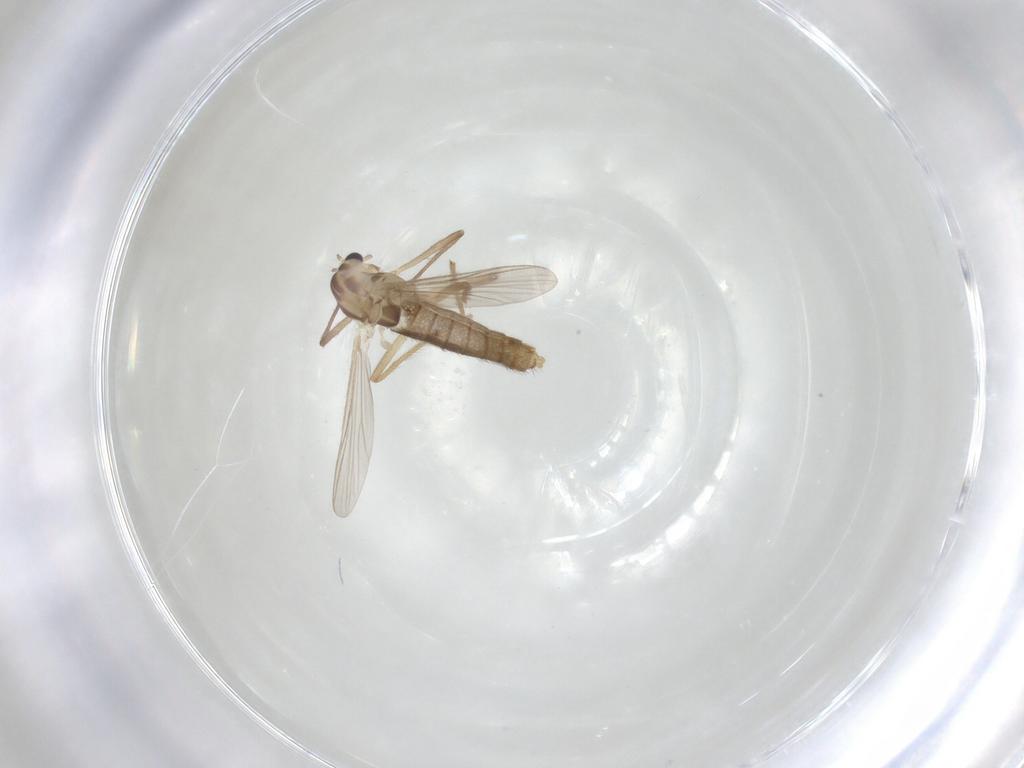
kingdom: Animalia
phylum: Arthropoda
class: Insecta
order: Diptera
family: Chironomidae
